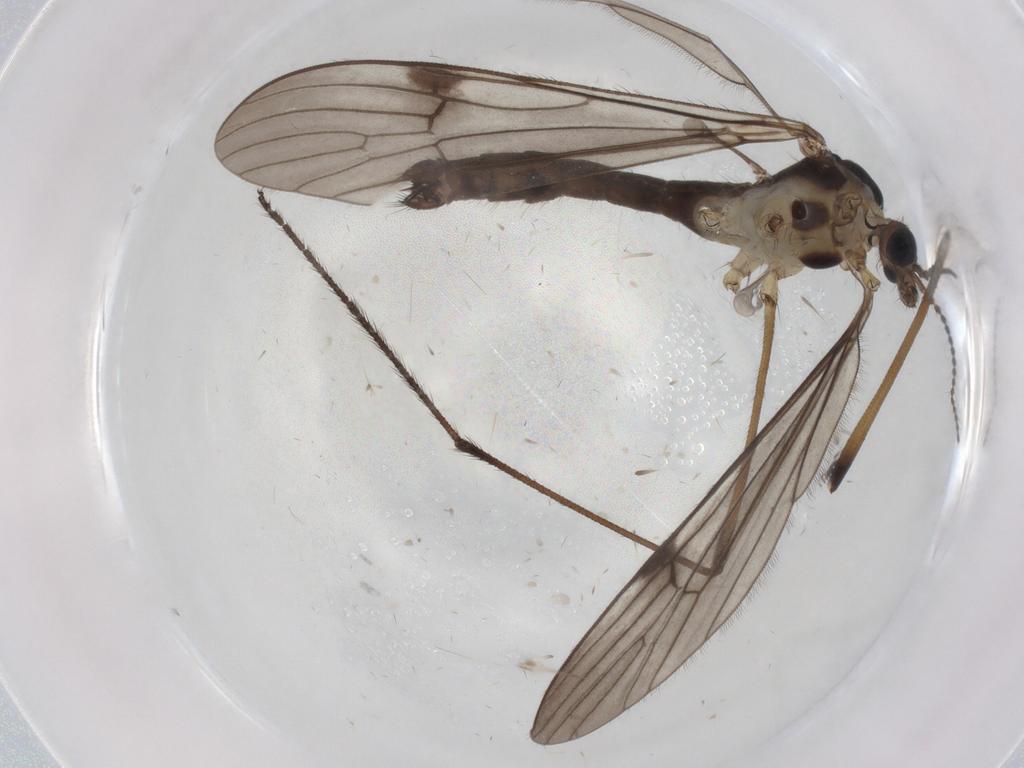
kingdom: Animalia
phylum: Arthropoda
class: Insecta
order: Diptera
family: Limoniidae
